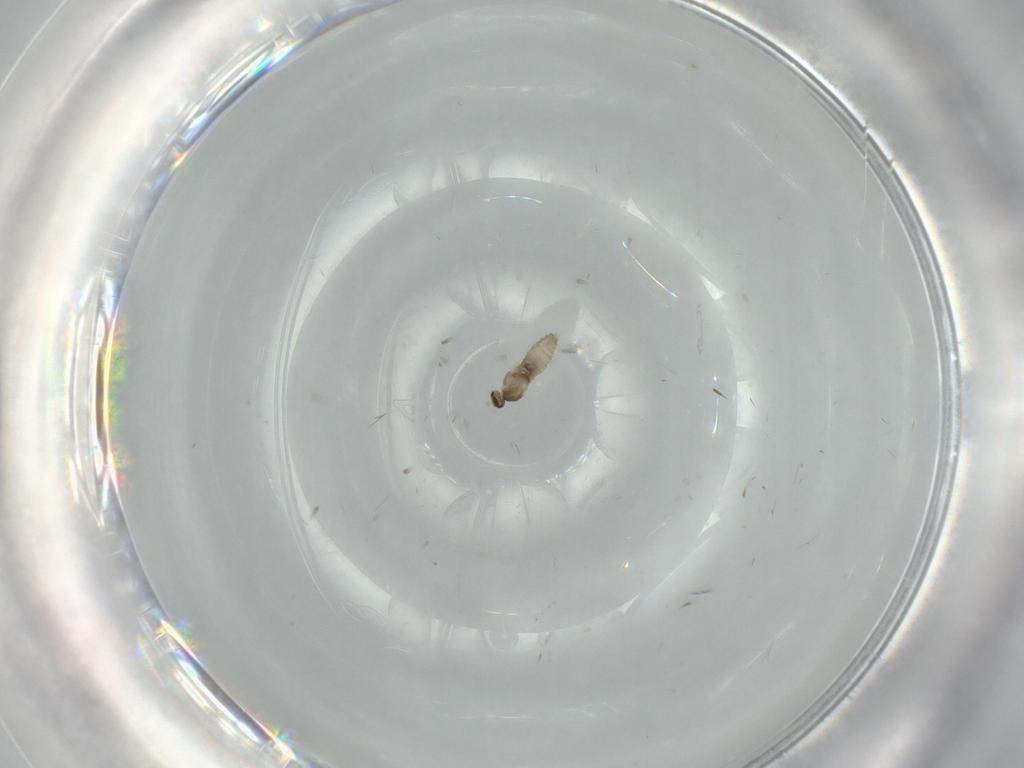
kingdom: Animalia
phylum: Arthropoda
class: Insecta
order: Diptera
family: Cecidomyiidae
